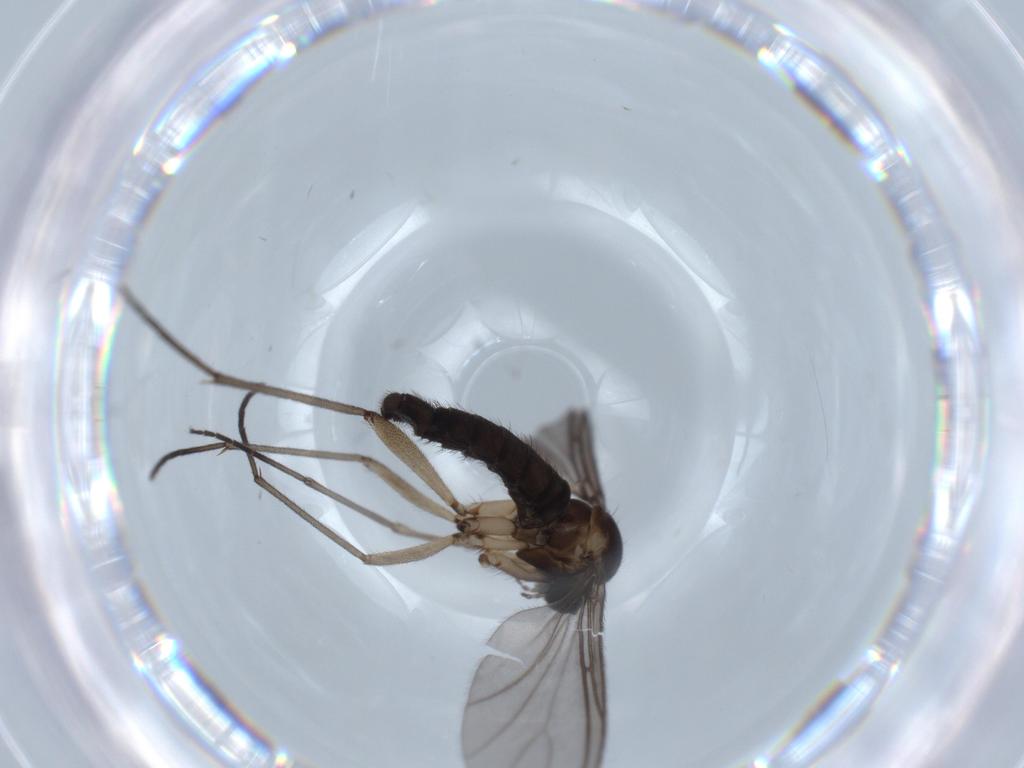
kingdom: Animalia
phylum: Arthropoda
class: Insecta
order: Diptera
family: Sciaridae
